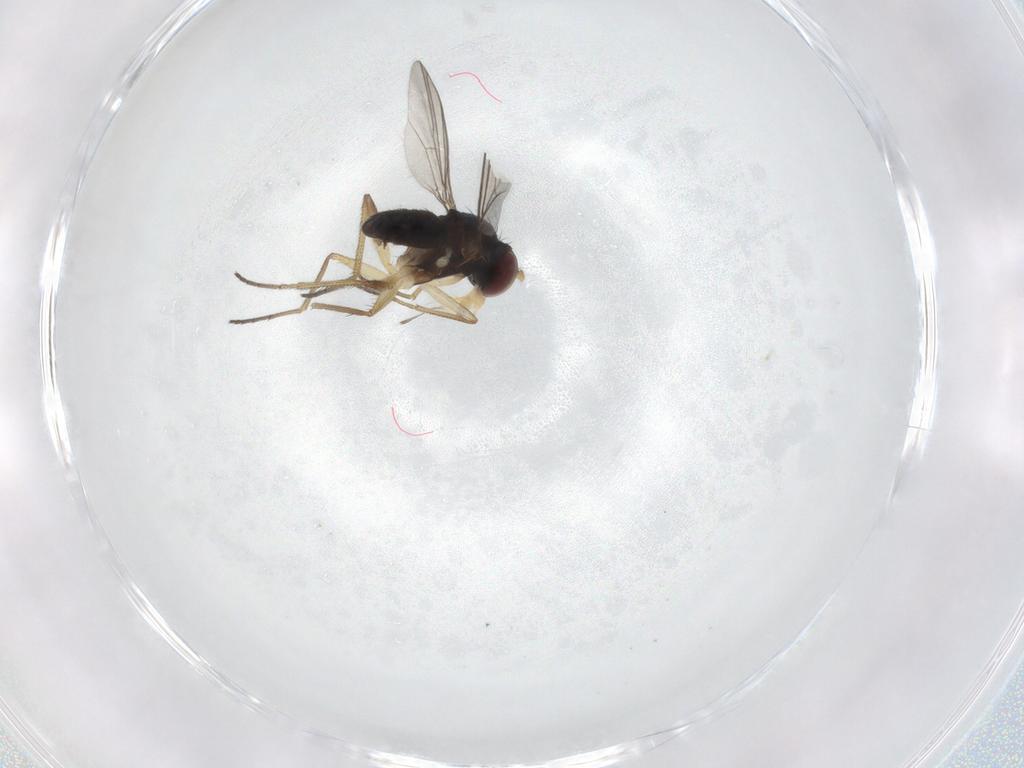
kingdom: Animalia
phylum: Arthropoda
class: Insecta
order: Diptera
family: Dolichopodidae
